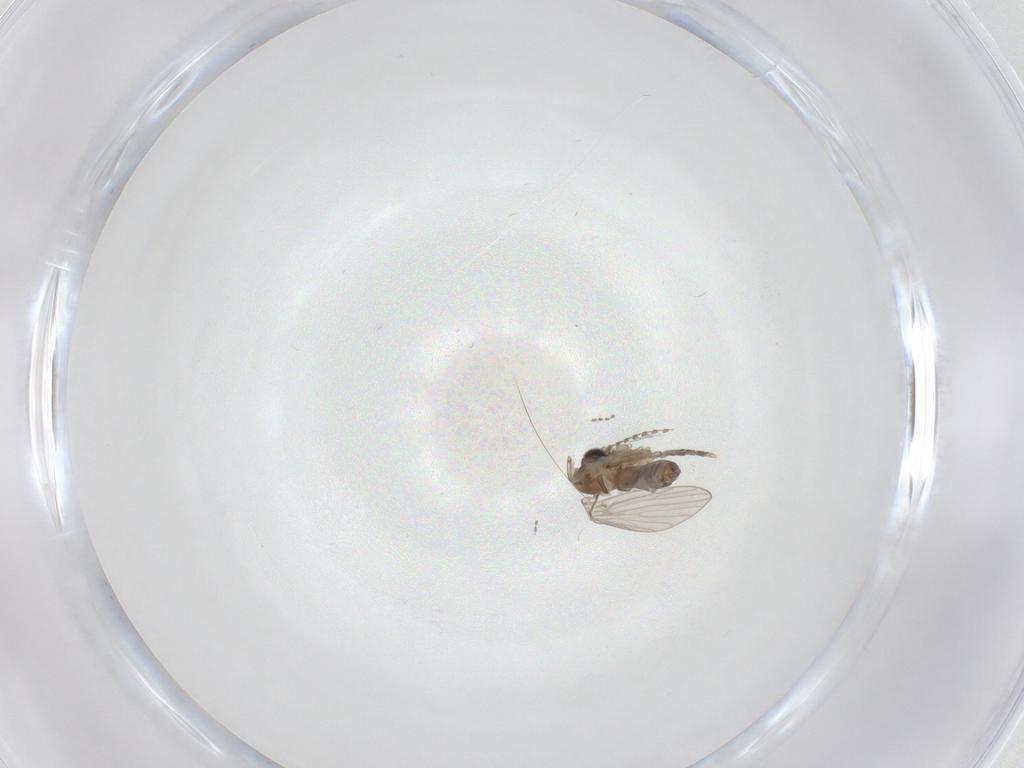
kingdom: Animalia
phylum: Arthropoda
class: Insecta
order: Diptera
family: Psychodidae
